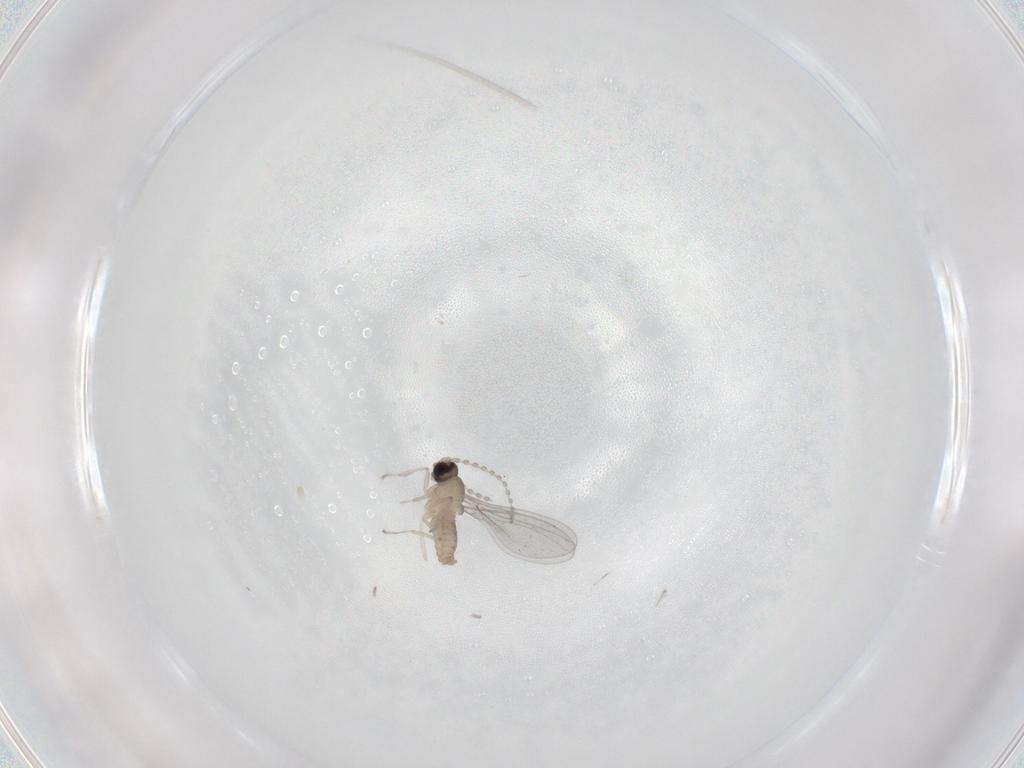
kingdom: Animalia
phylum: Arthropoda
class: Insecta
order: Diptera
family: Cecidomyiidae
